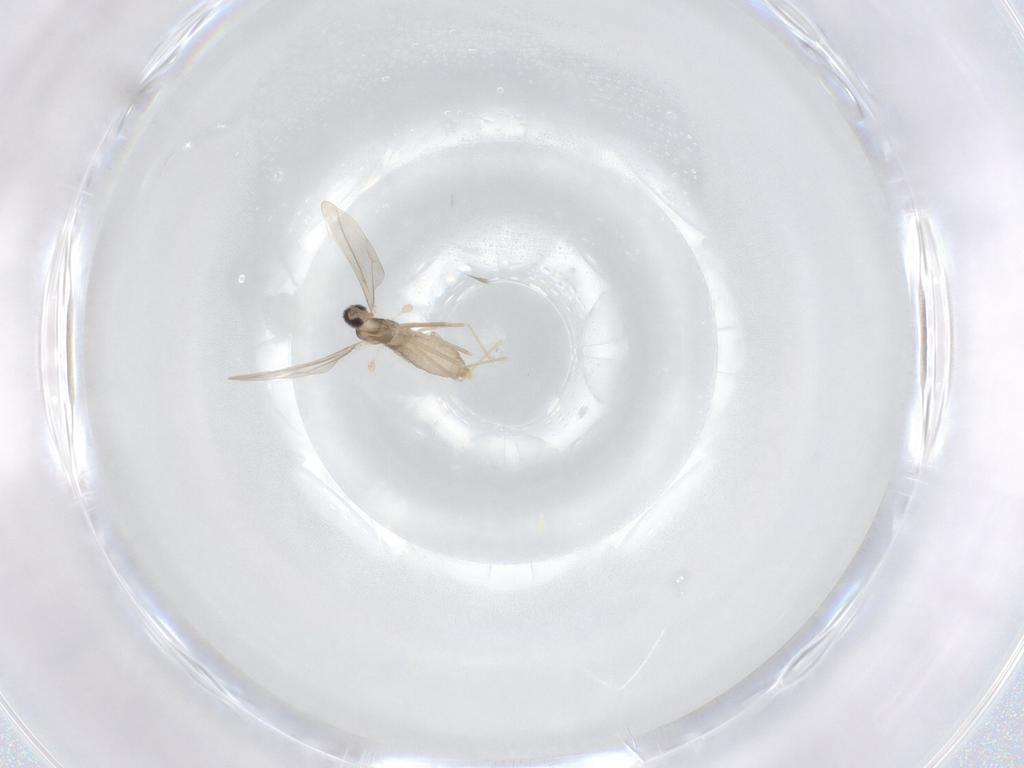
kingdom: Animalia
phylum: Arthropoda
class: Insecta
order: Diptera
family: Cecidomyiidae
